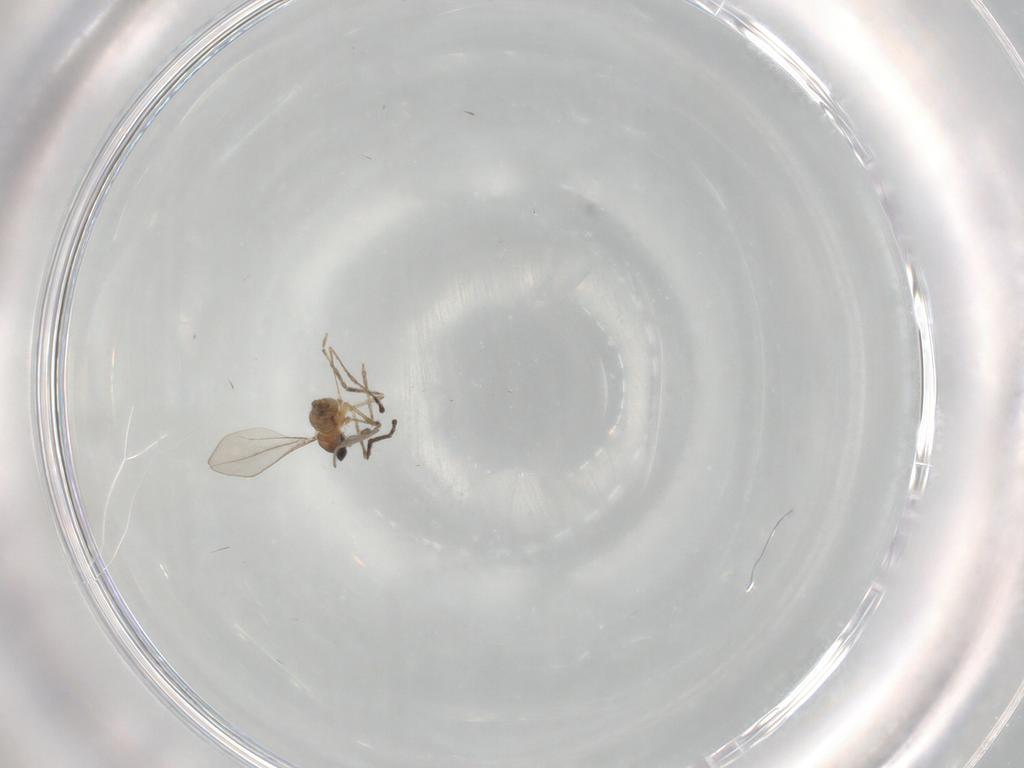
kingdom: Animalia
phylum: Arthropoda
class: Insecta
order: Diptera
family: Cecidomyiidae
